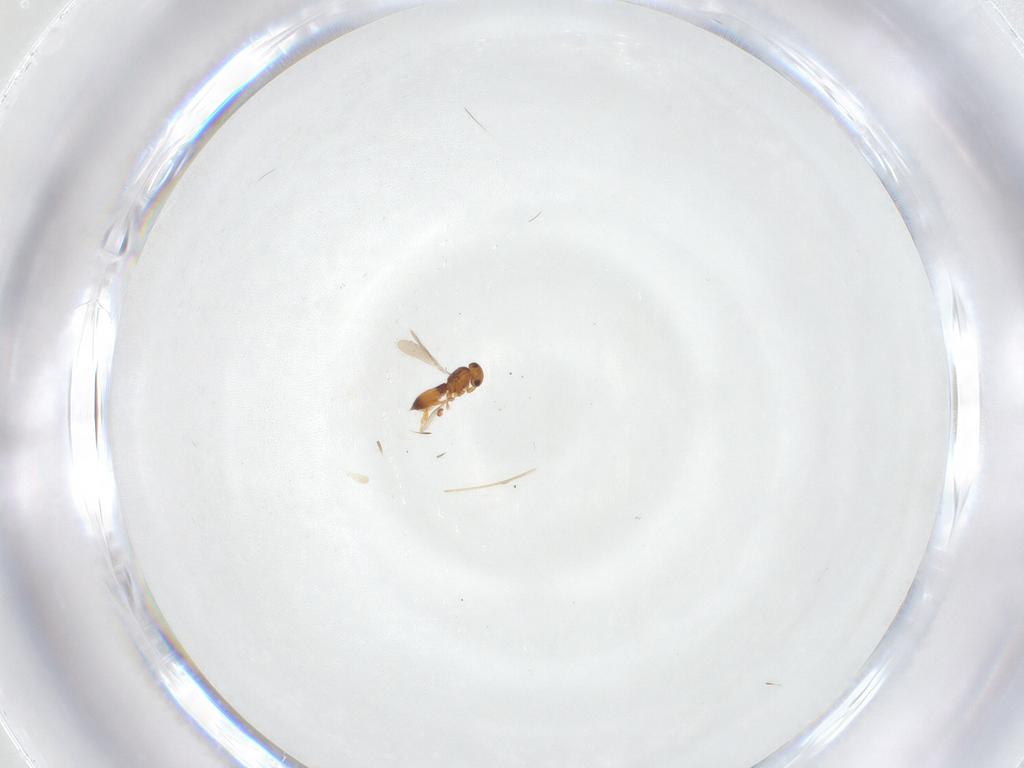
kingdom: Animalia
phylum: Arthropoda
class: Insecta
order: Hymenoptera
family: Platygastridae
